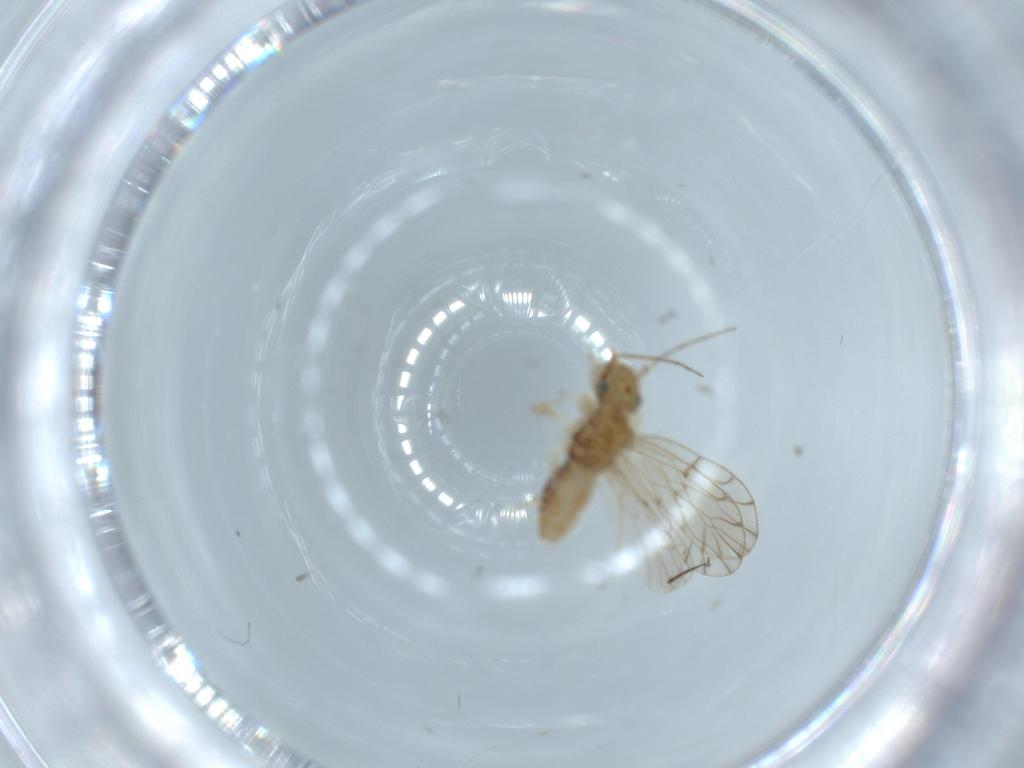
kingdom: Animalia
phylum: Arthropoda
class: Insecta
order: Psocodea
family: Ectopsocidae
